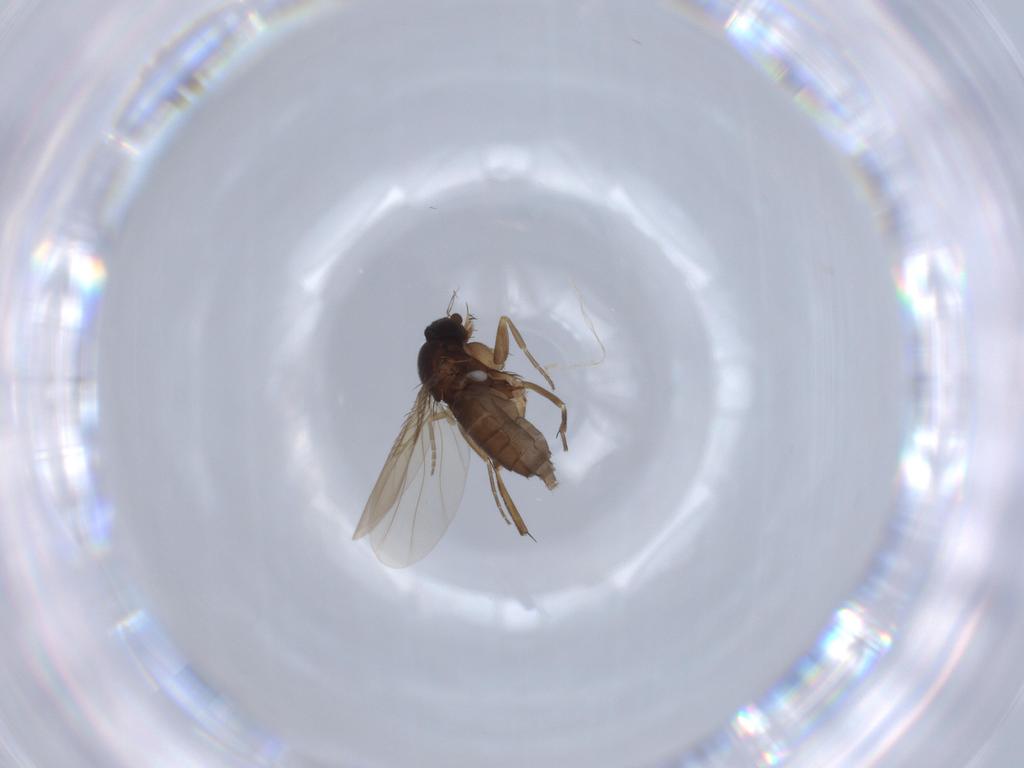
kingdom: Animalia
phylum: Arthropoda
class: Insecta
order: Diptera
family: Phoridae
